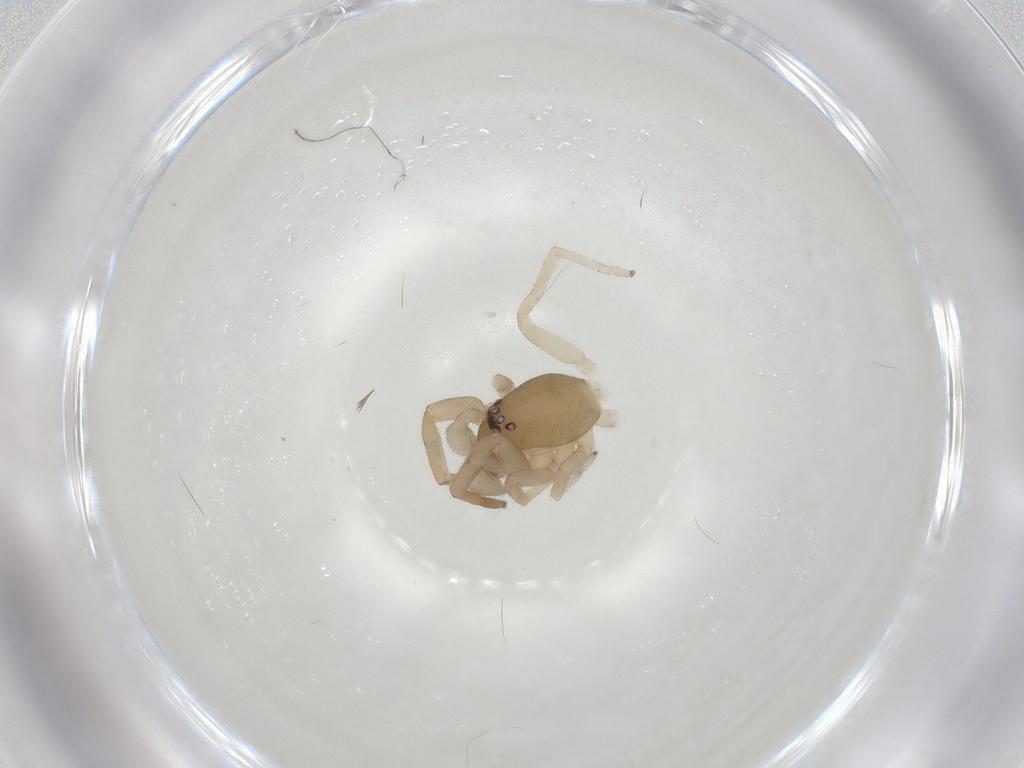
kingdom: Animalia
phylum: Arthropoda
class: Arachnida
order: Araneae
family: Trachelidae
